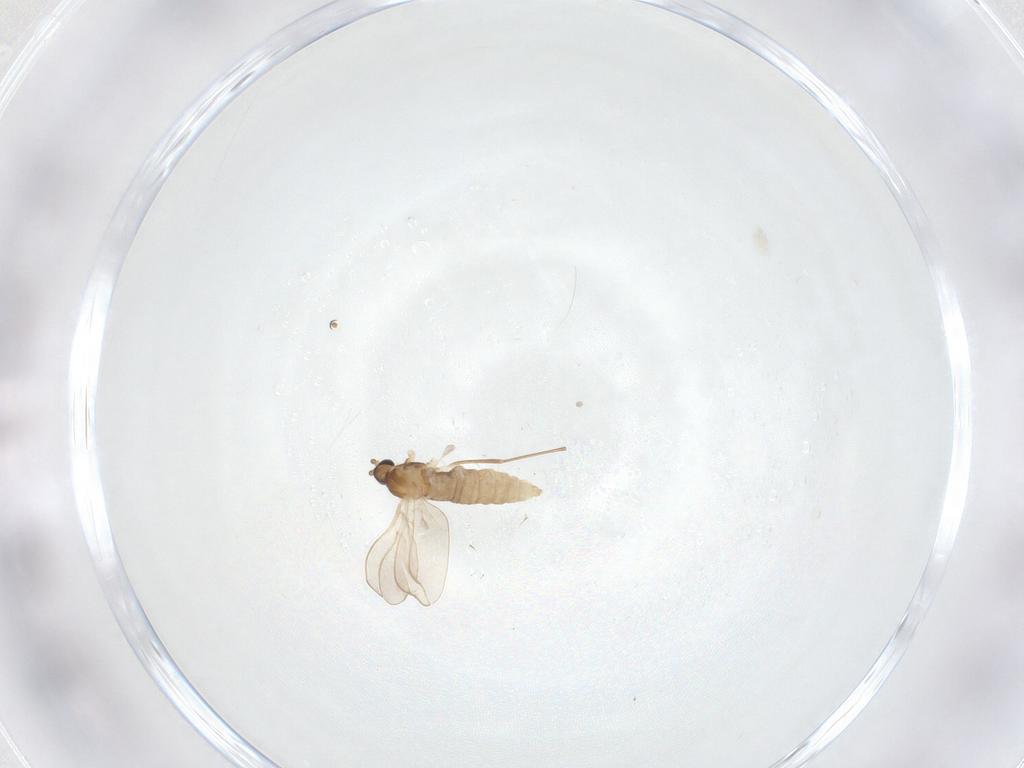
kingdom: Animalia
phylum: Arthropoda
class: Insecta
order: Diptera
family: Cecidomyiidae
